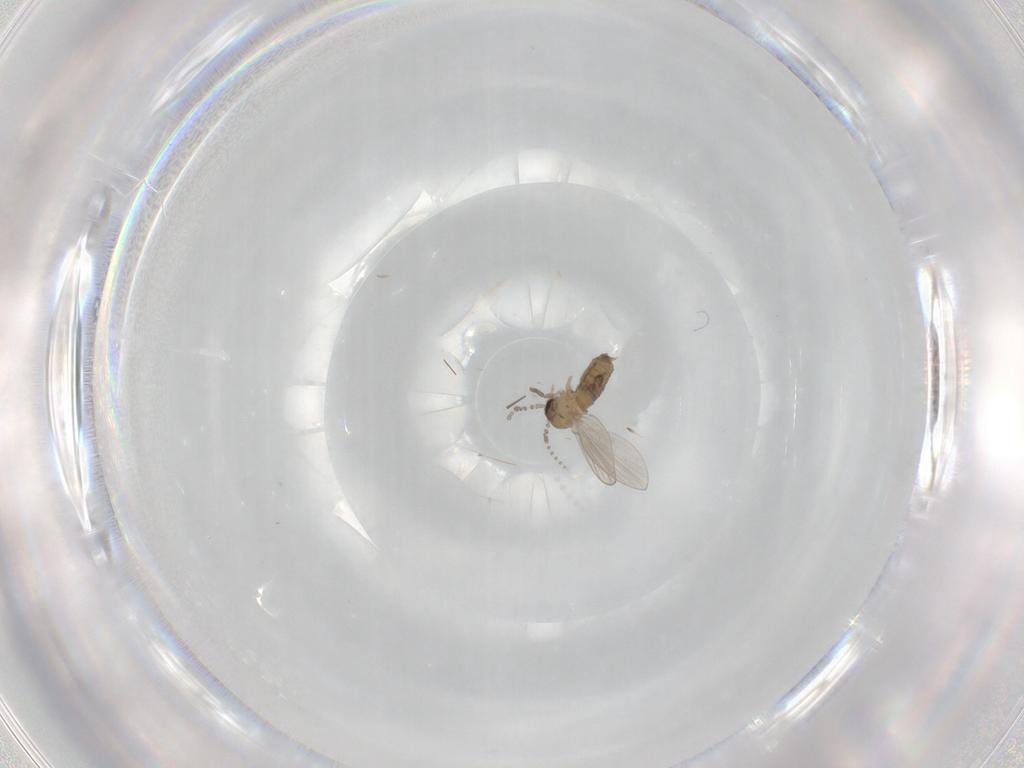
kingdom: Animalia
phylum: Arthropoda
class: Insecta
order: Diptera
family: Psychodidae
